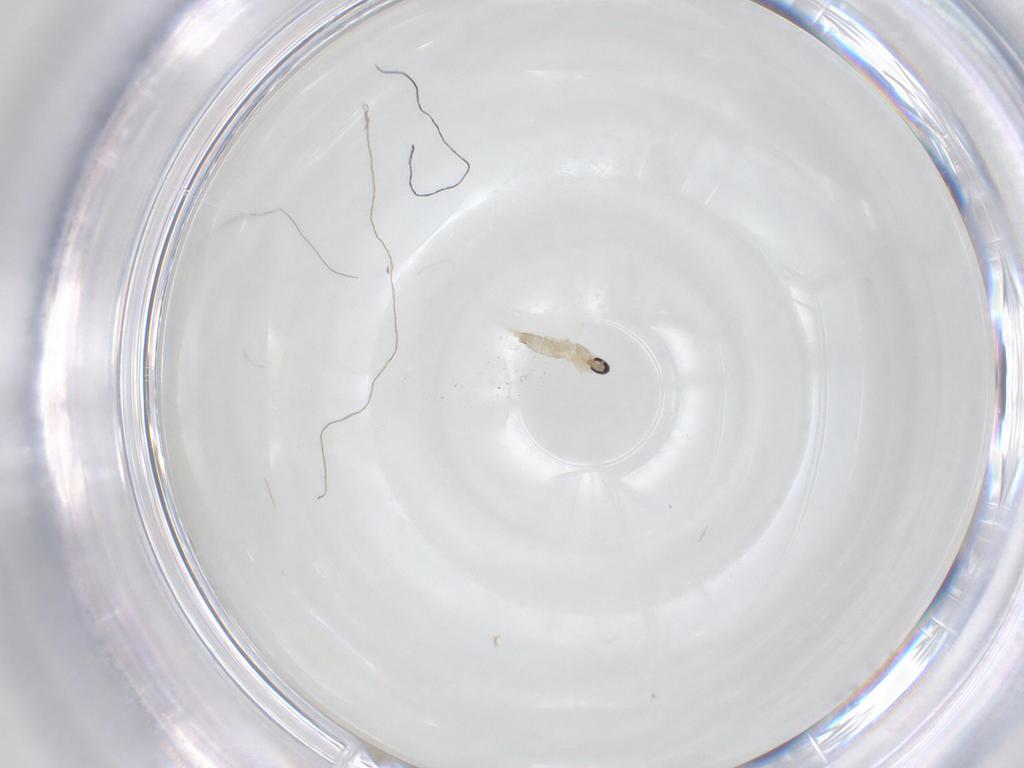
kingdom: Animalia
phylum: Arthropoda
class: Insecta
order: Diptera
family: Cecidomyiidae
